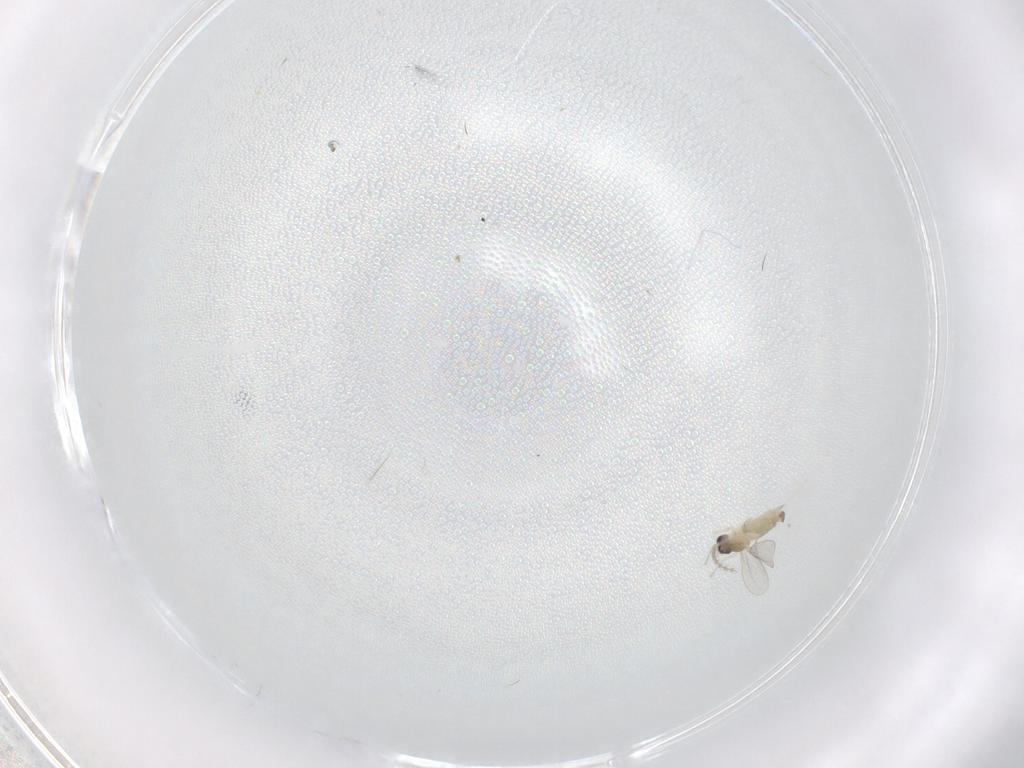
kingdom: Animalia
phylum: Arthropoda
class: Insecta
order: Diptera
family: Cecidomyiidae
